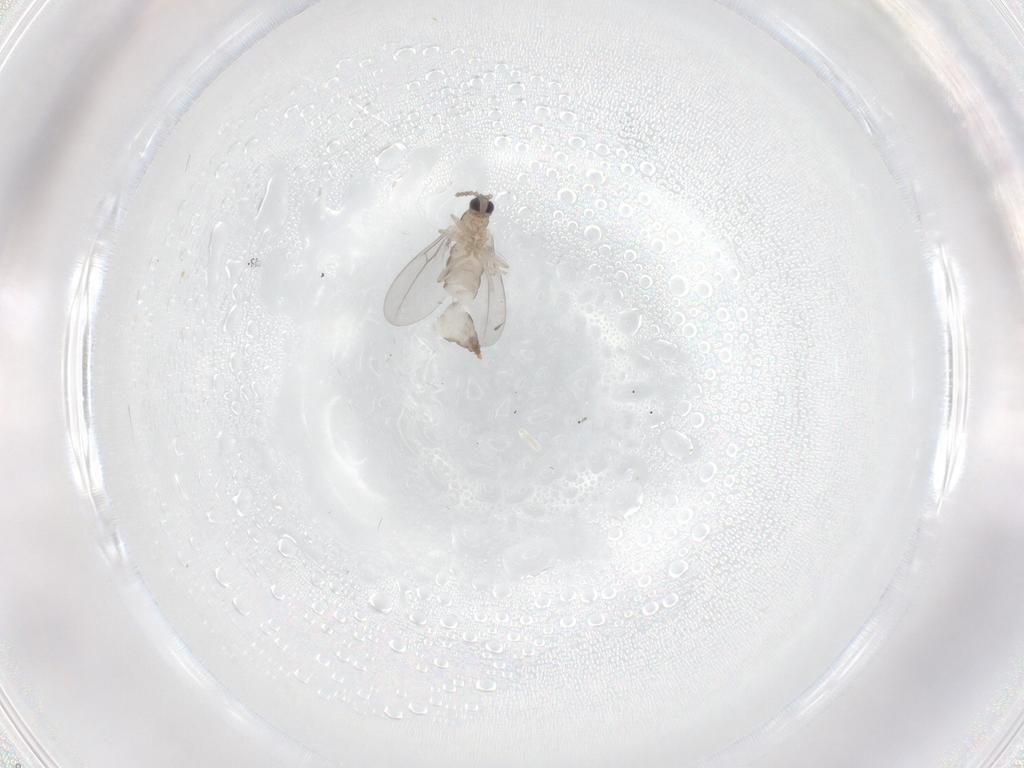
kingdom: Animalia
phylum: Arthropoda
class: Insecta
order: Diptera
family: Cecidomyiidae
